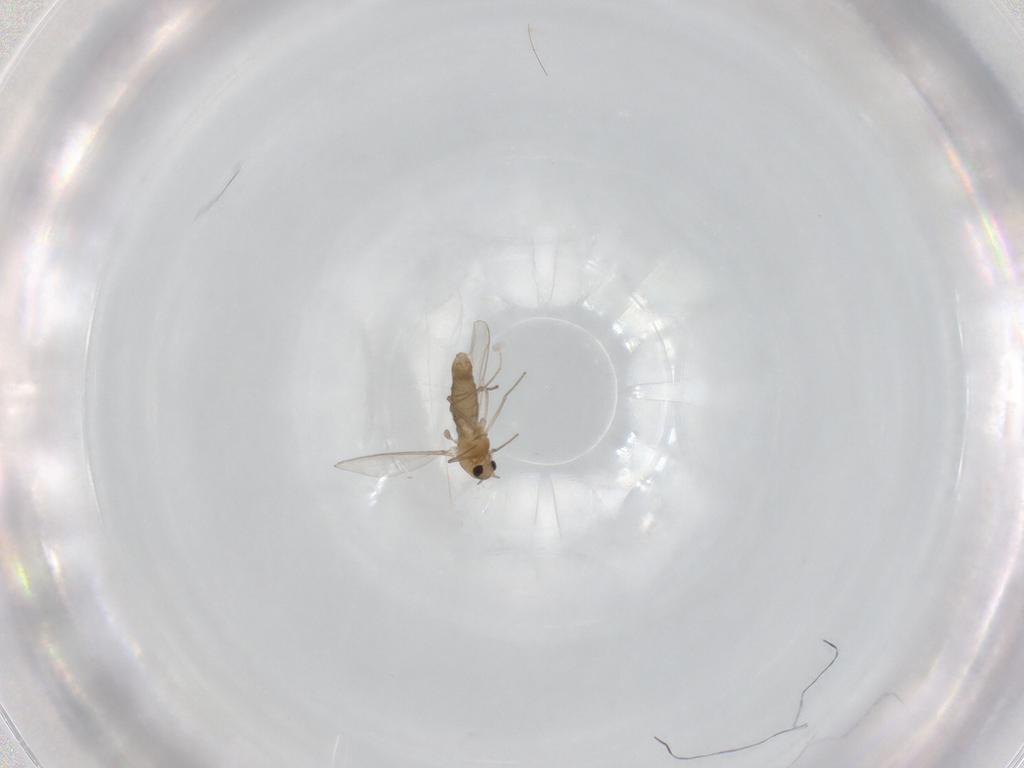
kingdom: Animalia
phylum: Arthropoda
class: Insecta
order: Diptera
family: Chironomidae
